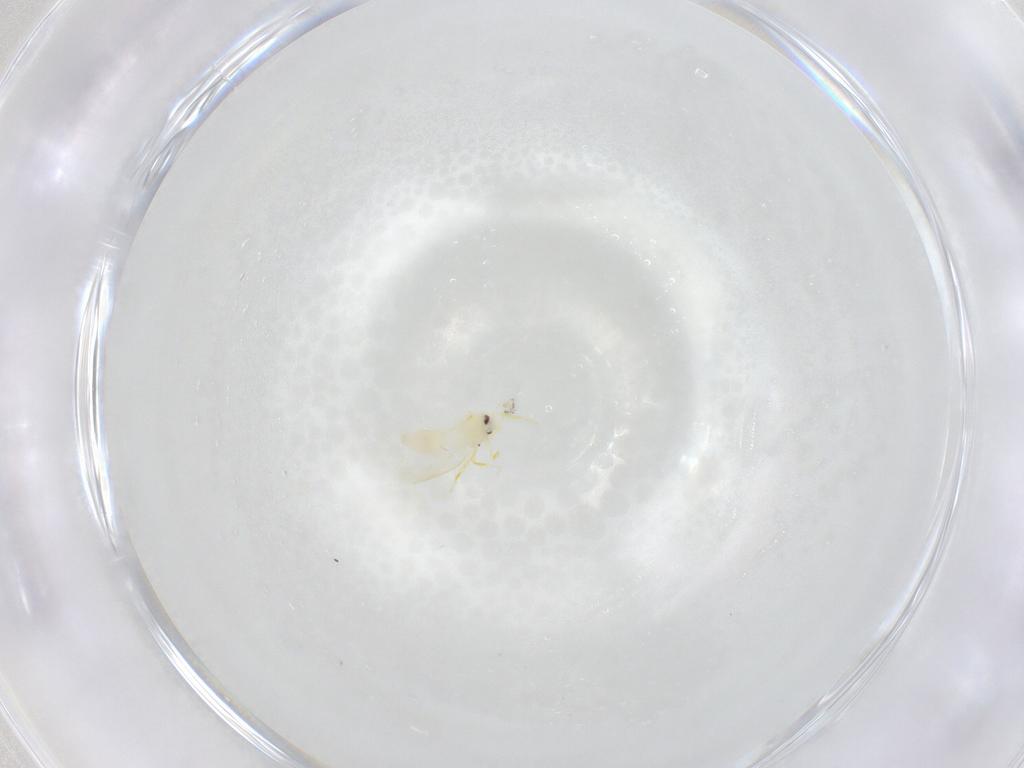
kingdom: Animalia
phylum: Arthropoda
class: Insecta
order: Hemiptera
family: Aleyrodidae
